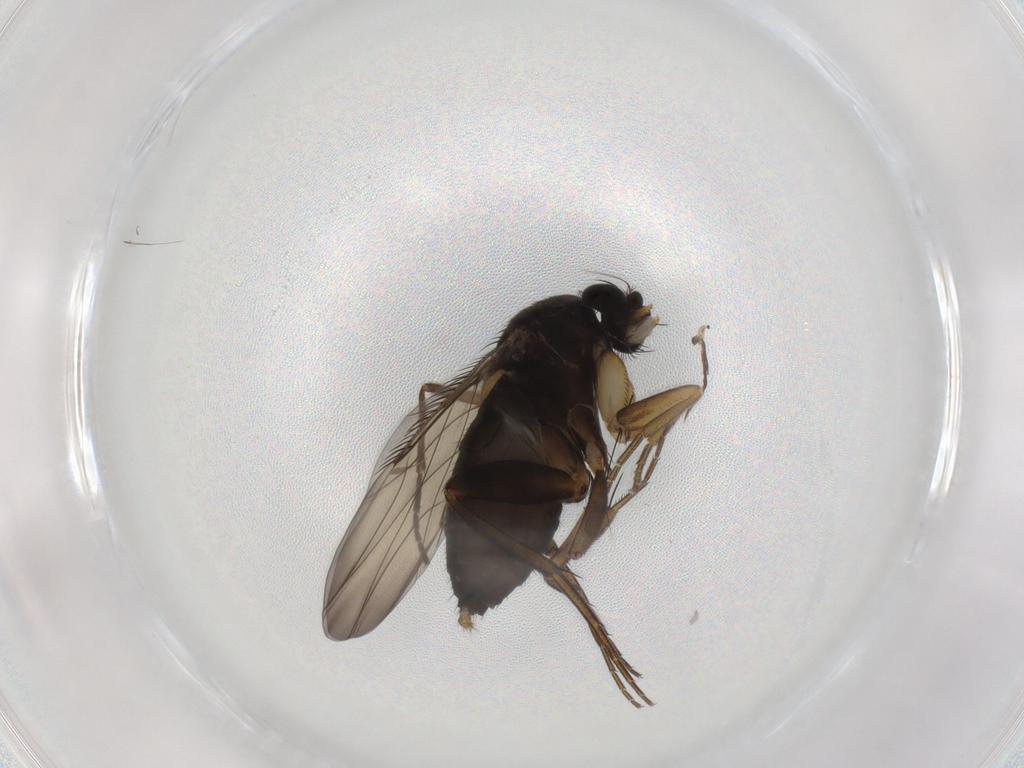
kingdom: Animalia
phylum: Arthropoda
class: Insecta
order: Diptera
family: Phoridae
